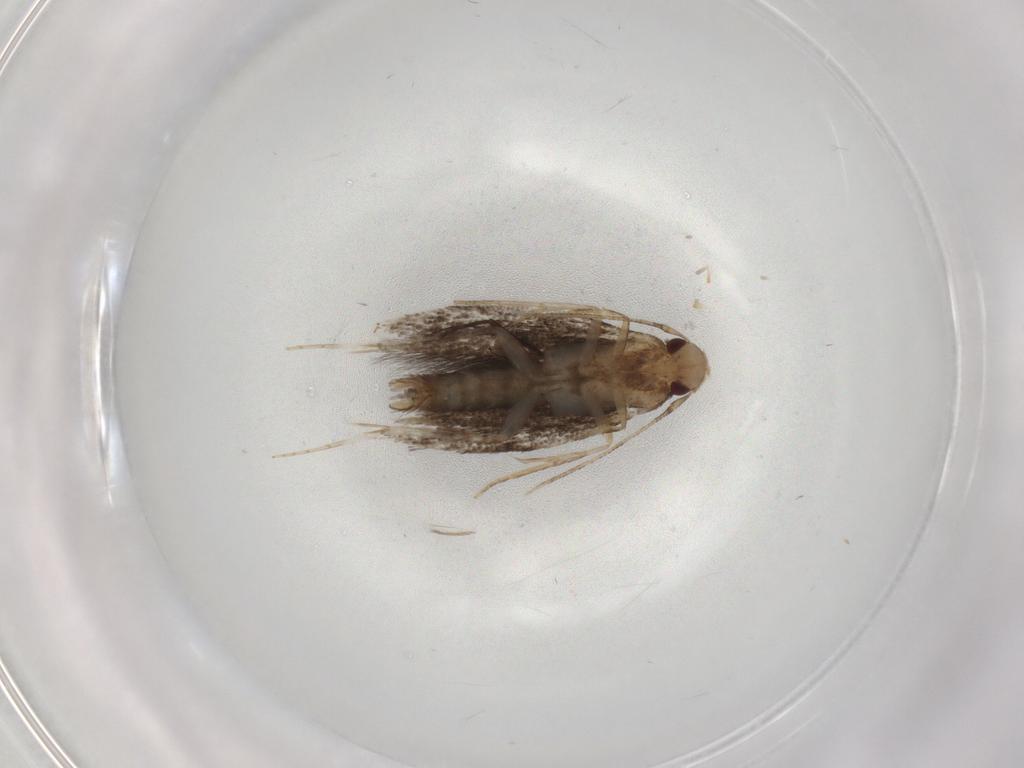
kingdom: Animalia
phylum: Arthropoda
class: Insecta
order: Lepidoptera
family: Gelechiidae
